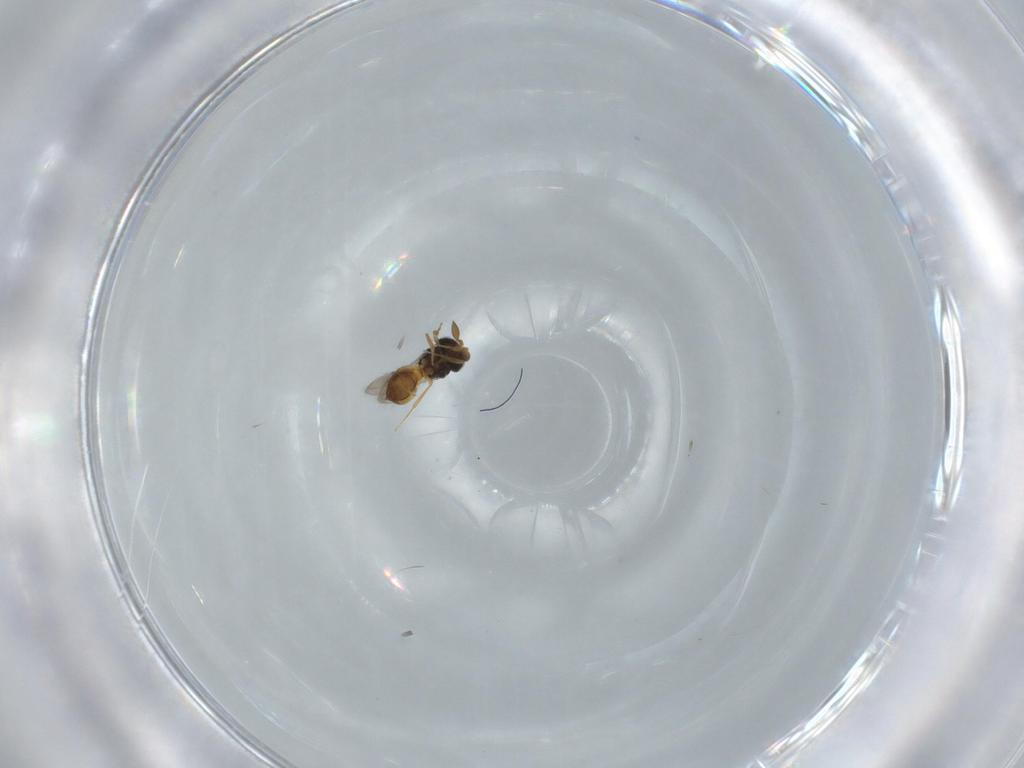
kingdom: Animalia
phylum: Arthropoda
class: Insecta
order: Hymenoptera
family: Scelionidae
